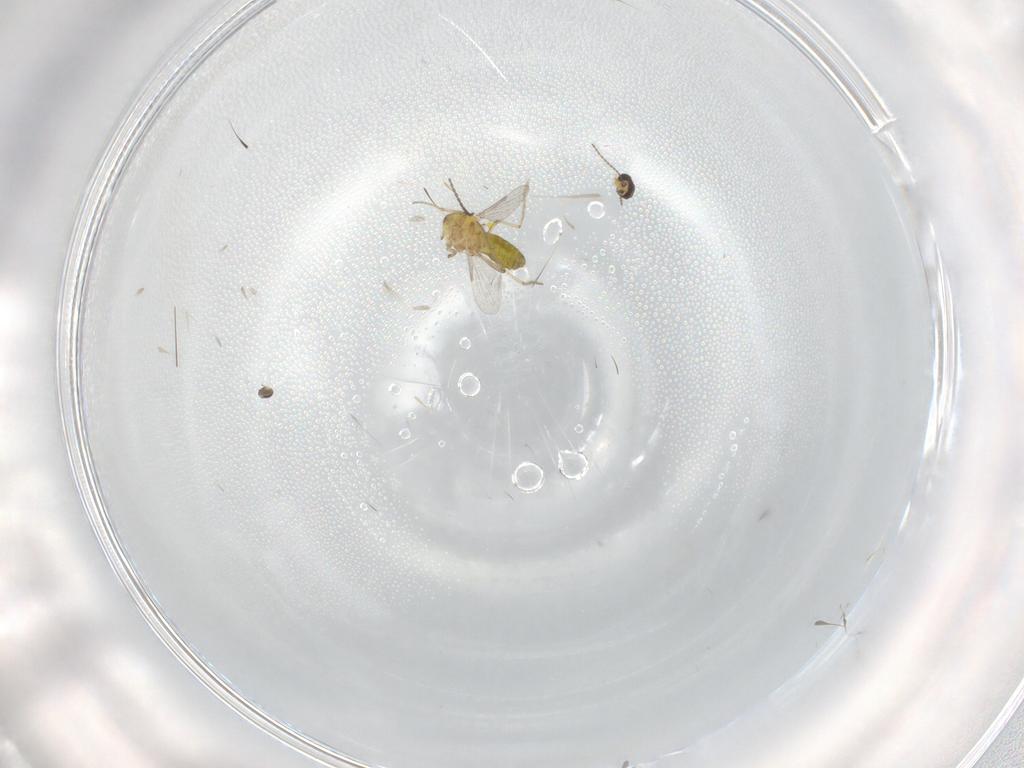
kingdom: Animalia
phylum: Arthropoda
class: Insecta
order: Diptera
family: Ceratopogonidae
